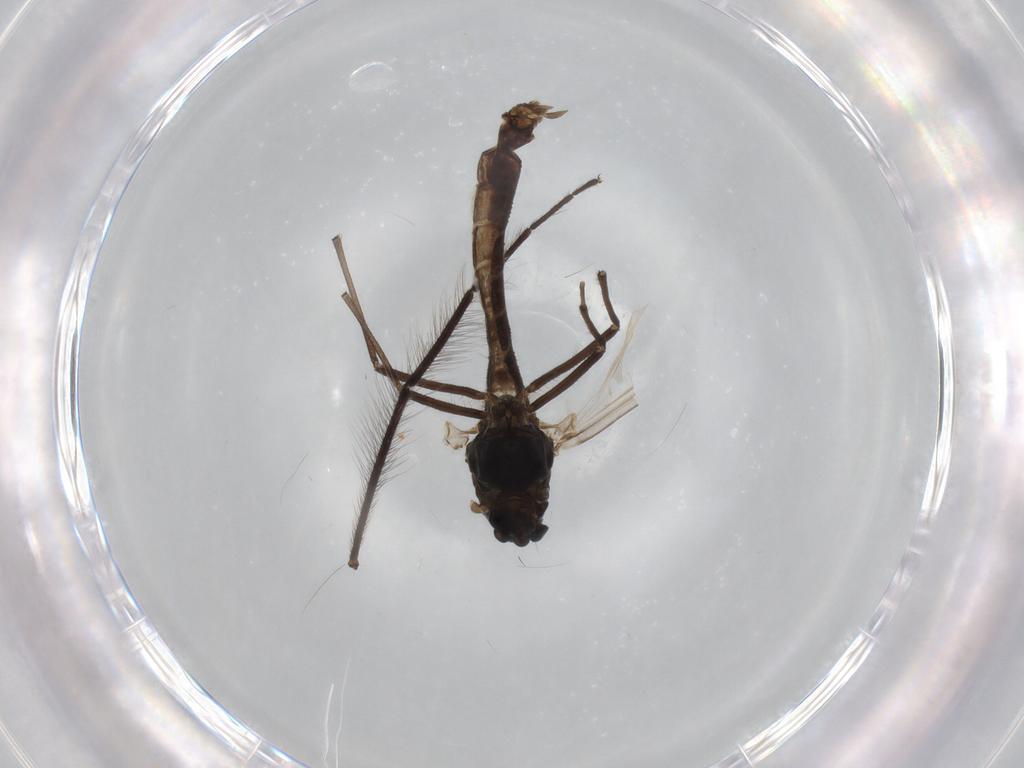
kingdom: Animalia
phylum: Arthropoda
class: Insecta
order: Diptera
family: Chironomidae
